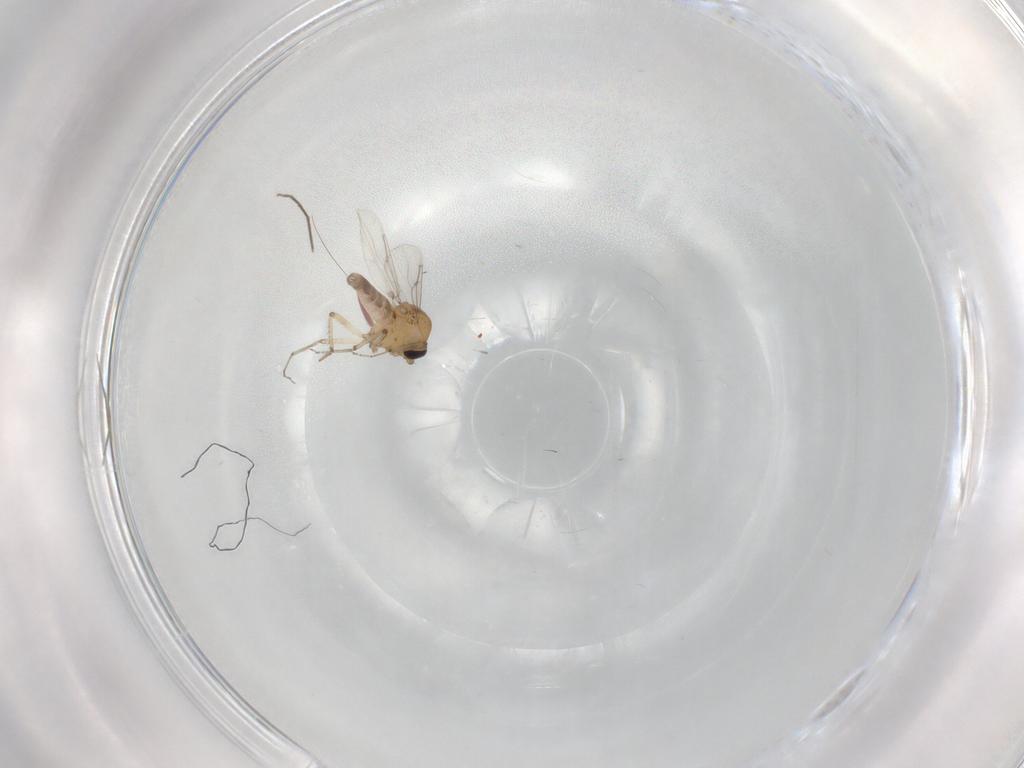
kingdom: Animalia
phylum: Arthropoda
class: Insecta
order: Diptera
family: Ceratopogonidae
